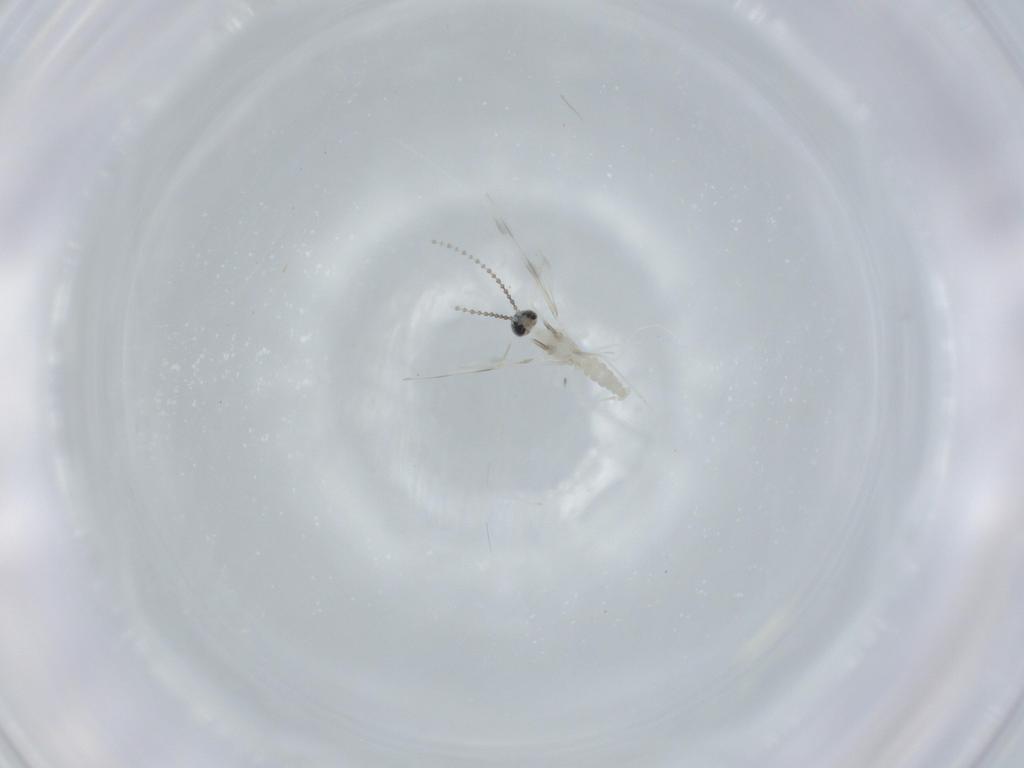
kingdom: Animalia
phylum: Arthropoda
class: Insecta
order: Diptera
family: Cecidomyiidae
